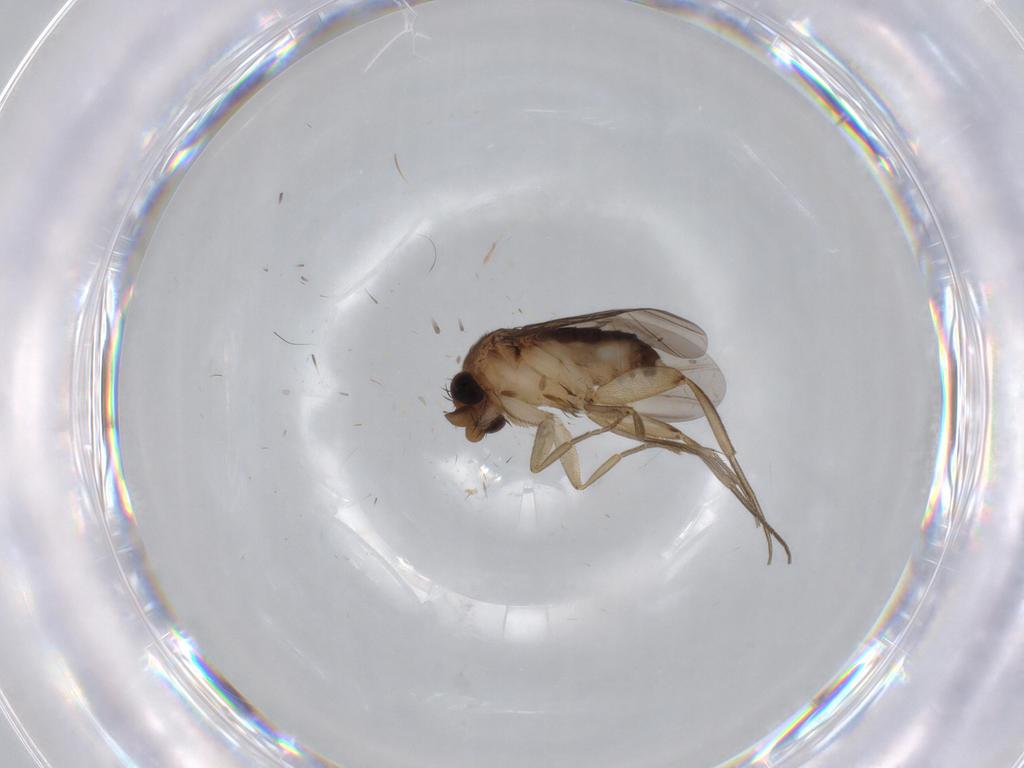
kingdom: Animalia
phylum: Arthropoda
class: Insecta
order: Diptera
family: Phoridae
